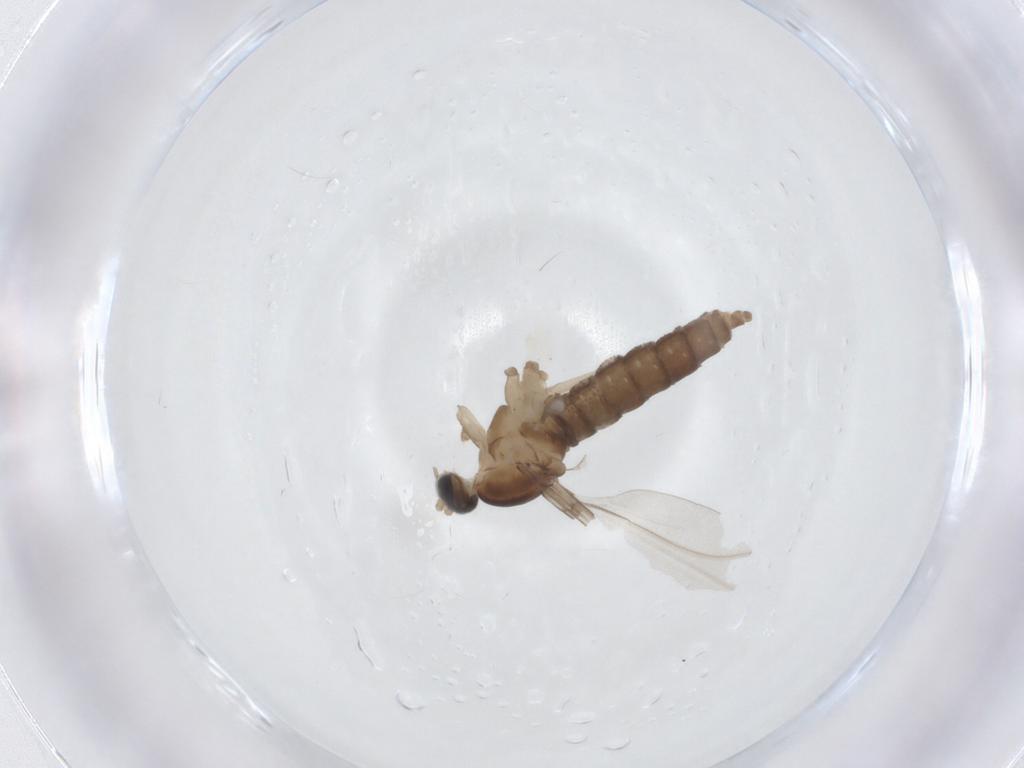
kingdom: Animalia
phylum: Arthropoda
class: Insecta
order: Diptera
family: Cecidomyiidae
